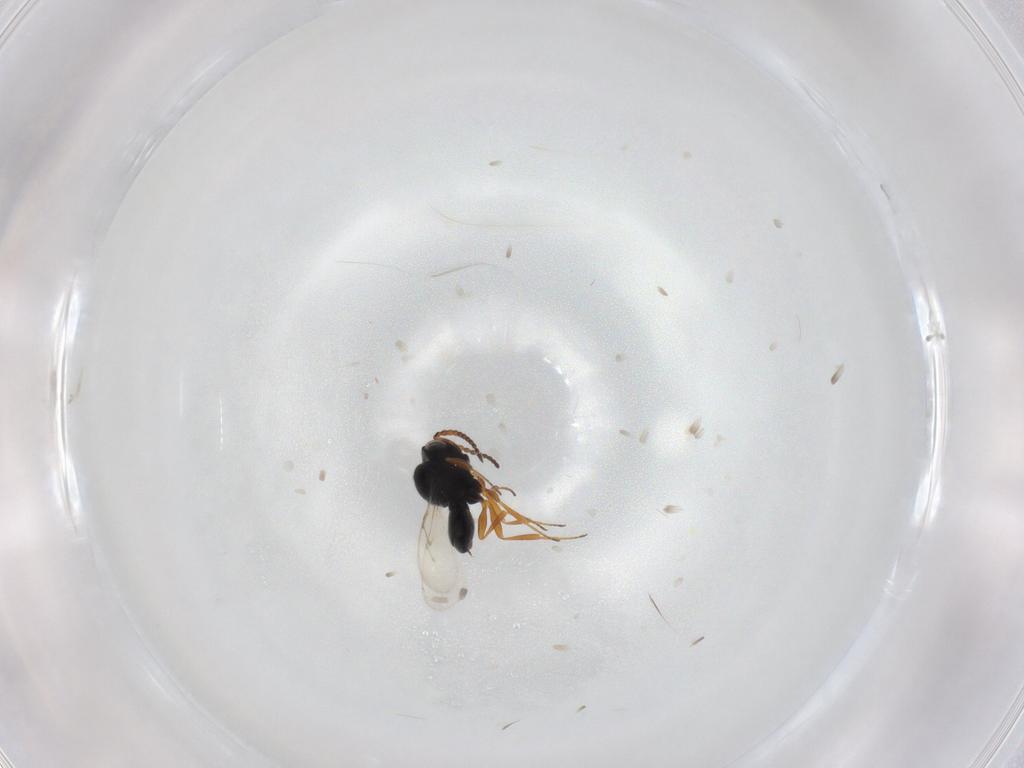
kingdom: Animalia
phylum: Arthropoda
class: Insecta
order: Hymenoptera
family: Scelionidae
